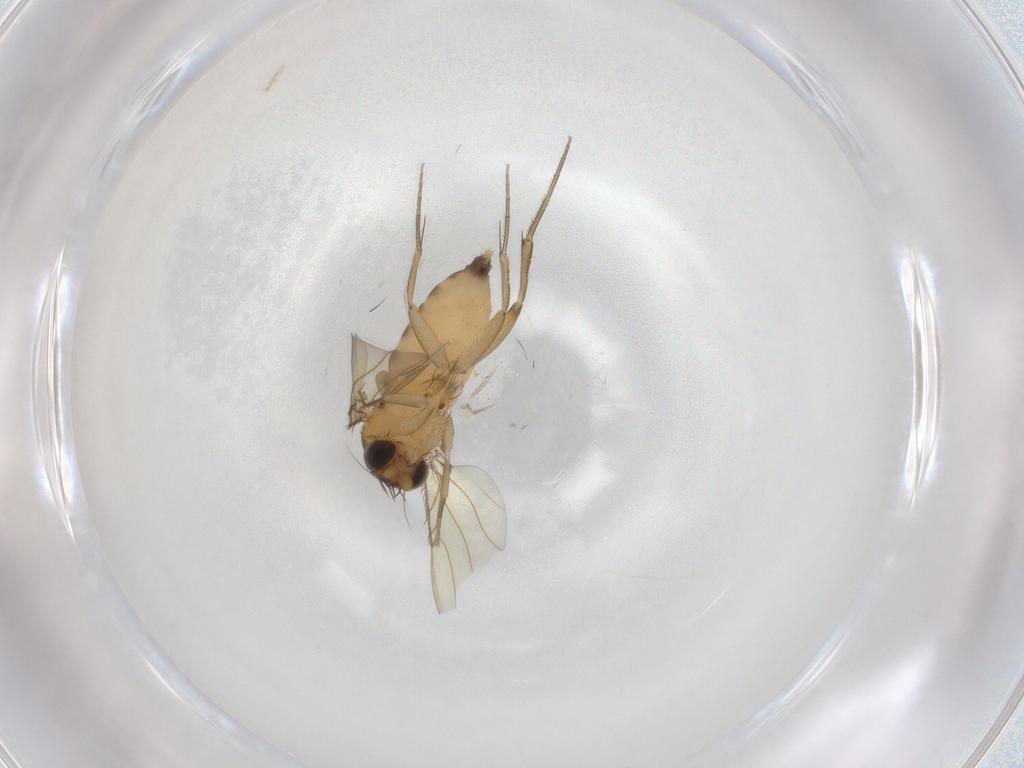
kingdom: Animalia
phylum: Arthropoda
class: Insecta
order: Diptera
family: Phoridae
